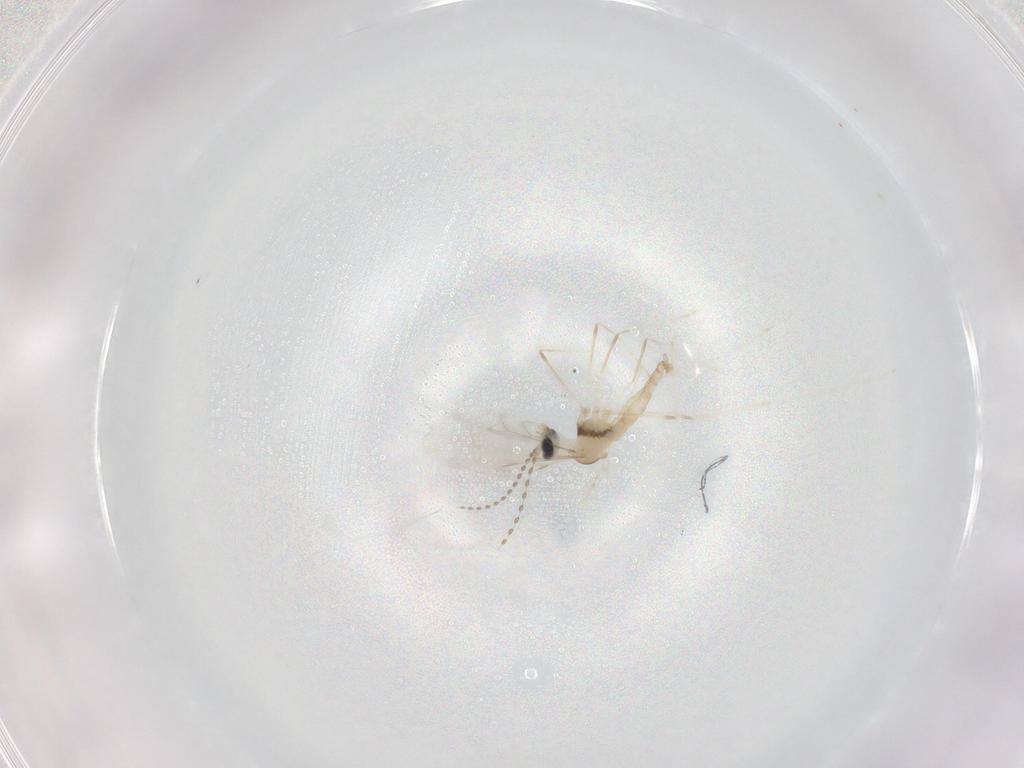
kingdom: Animalia
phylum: Arthropoda
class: Insecta
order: Diptera
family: Cecidomyiidae
